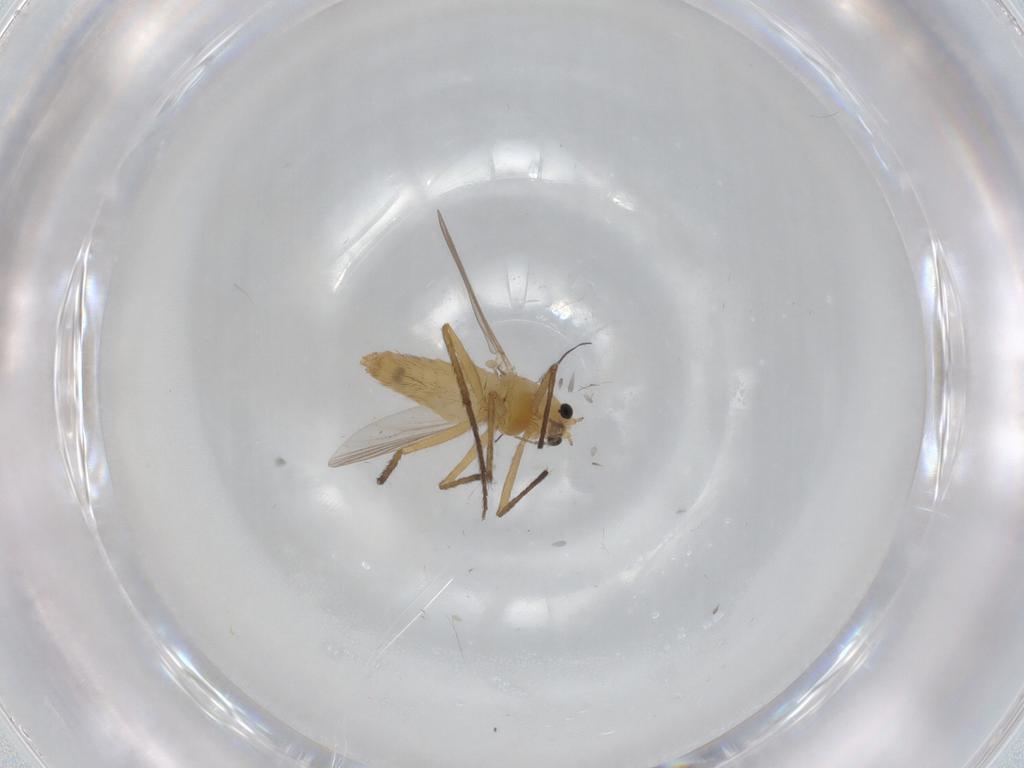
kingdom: Animalia
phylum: Arthropoda
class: Insecta
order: Diptera
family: Chironomidae
